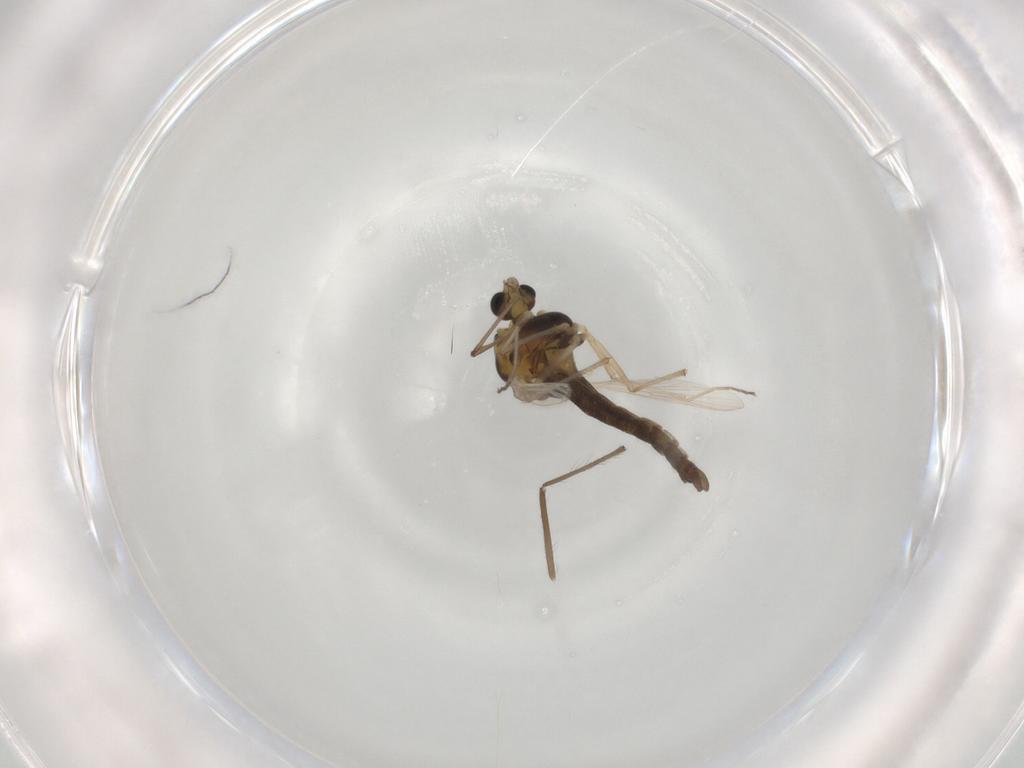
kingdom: Animalia
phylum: Arthropoda
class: Insecta
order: Diptera
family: Chironomidae
